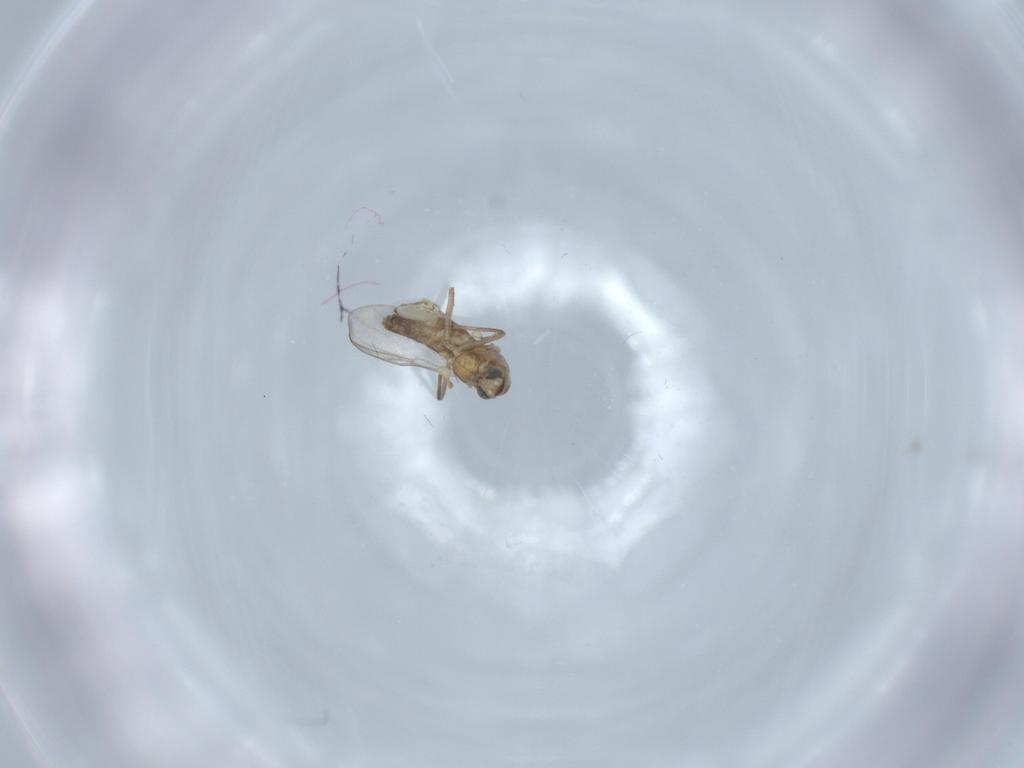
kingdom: Animalia
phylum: Arthropoda
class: Insecta
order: Diptera
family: Chironomidae
